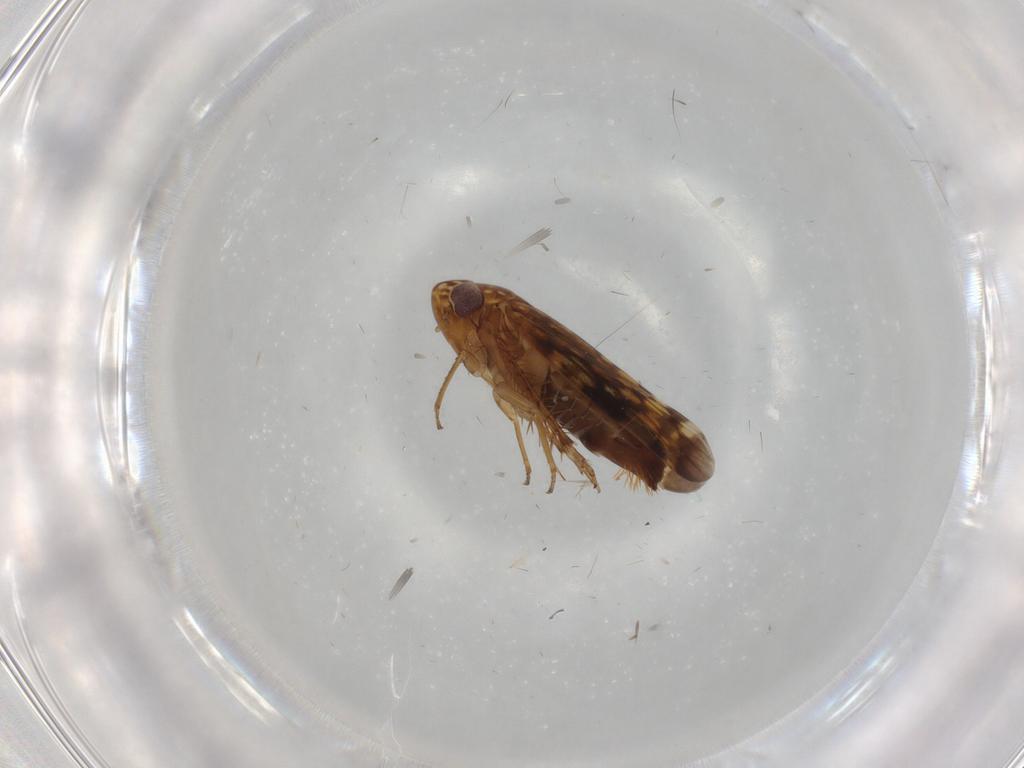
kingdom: Animalia
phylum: Arthropoda
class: Insecta
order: Hemiptera
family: Cicadellidae
